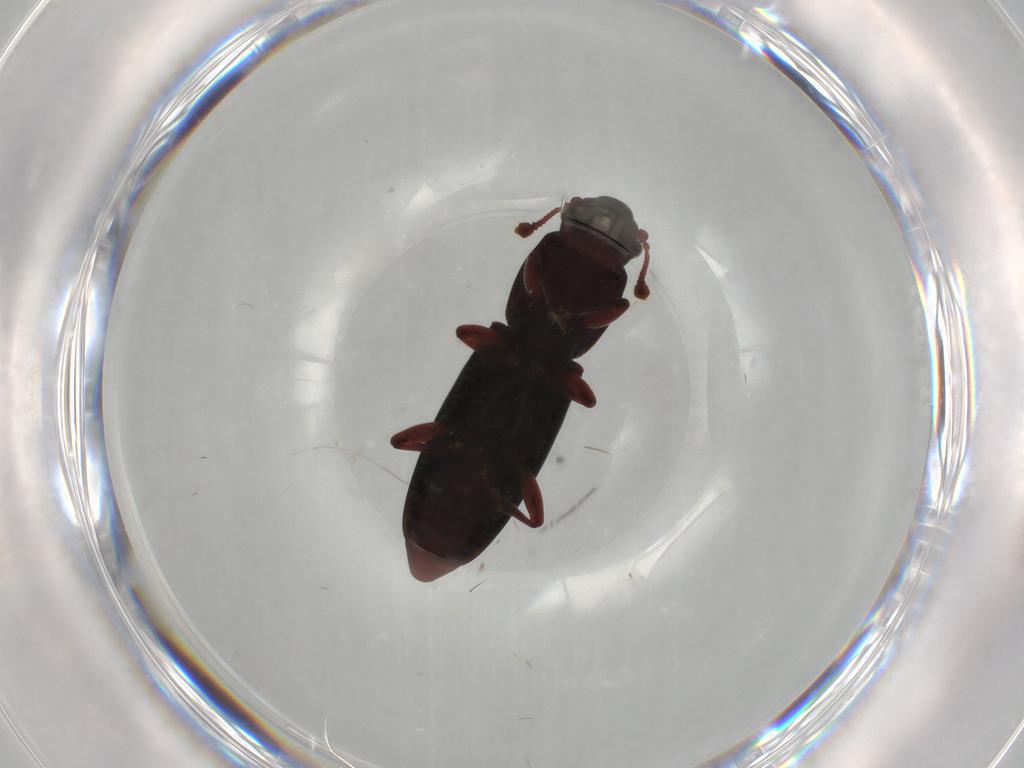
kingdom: Animalia
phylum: Arthropoda
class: Insecta
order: Coleoptera
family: Monotomidae
